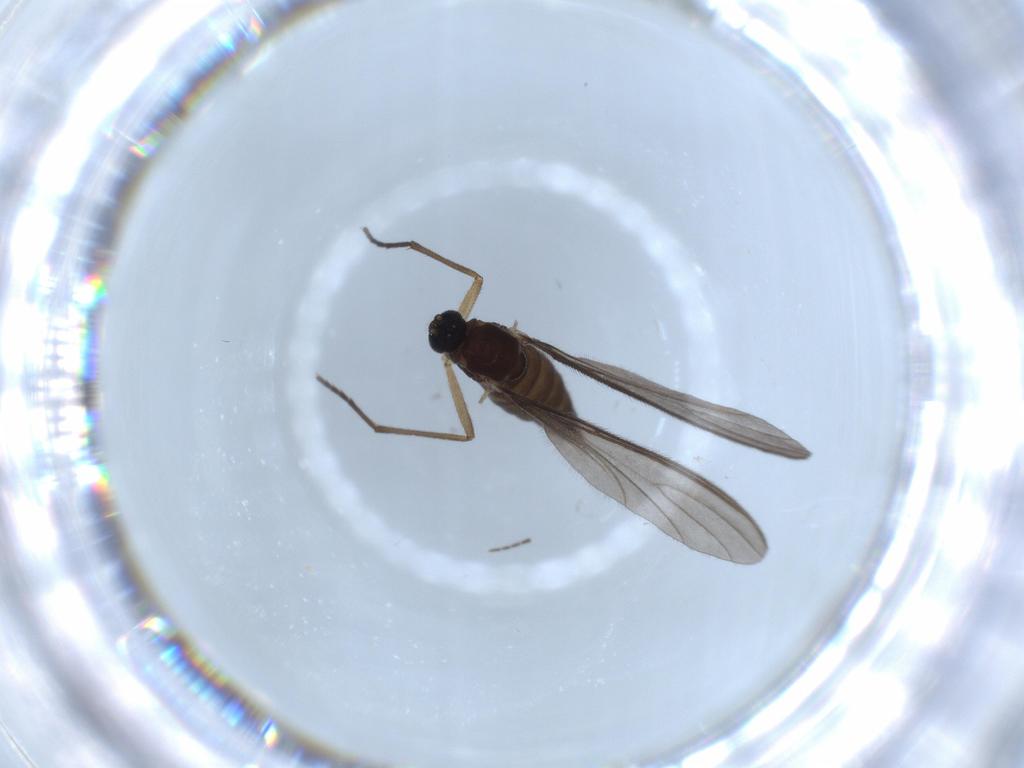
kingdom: Animalia
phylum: Arthropoda
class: Insecta
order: Diptera
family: Sciaridae
